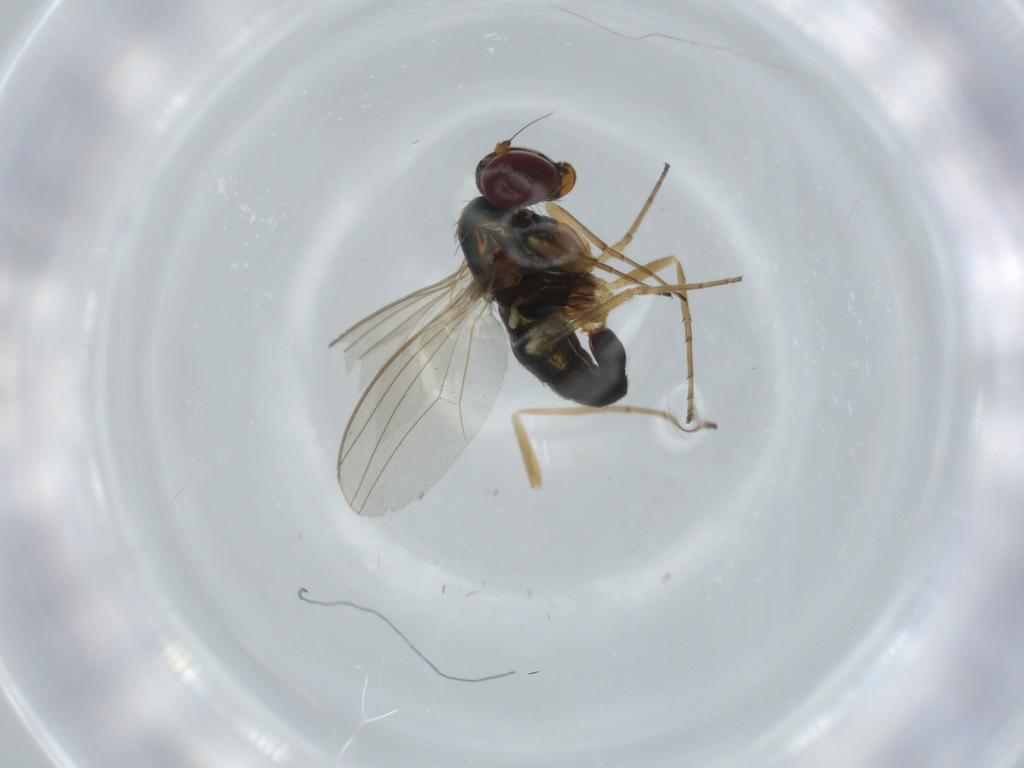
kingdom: Animalia
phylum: Arthropoda
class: Insecta
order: Diptera
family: Dolichopodidae
